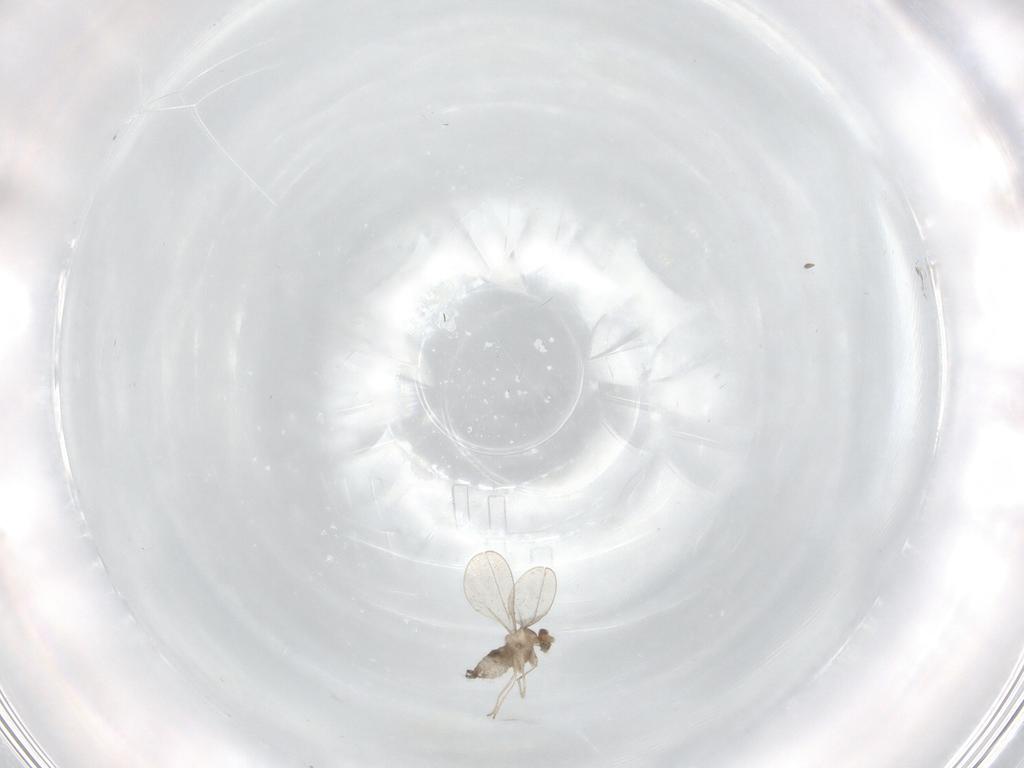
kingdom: Animalia
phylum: Arthropoda
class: Insecta
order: Diptera
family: Cecidomyiidae
